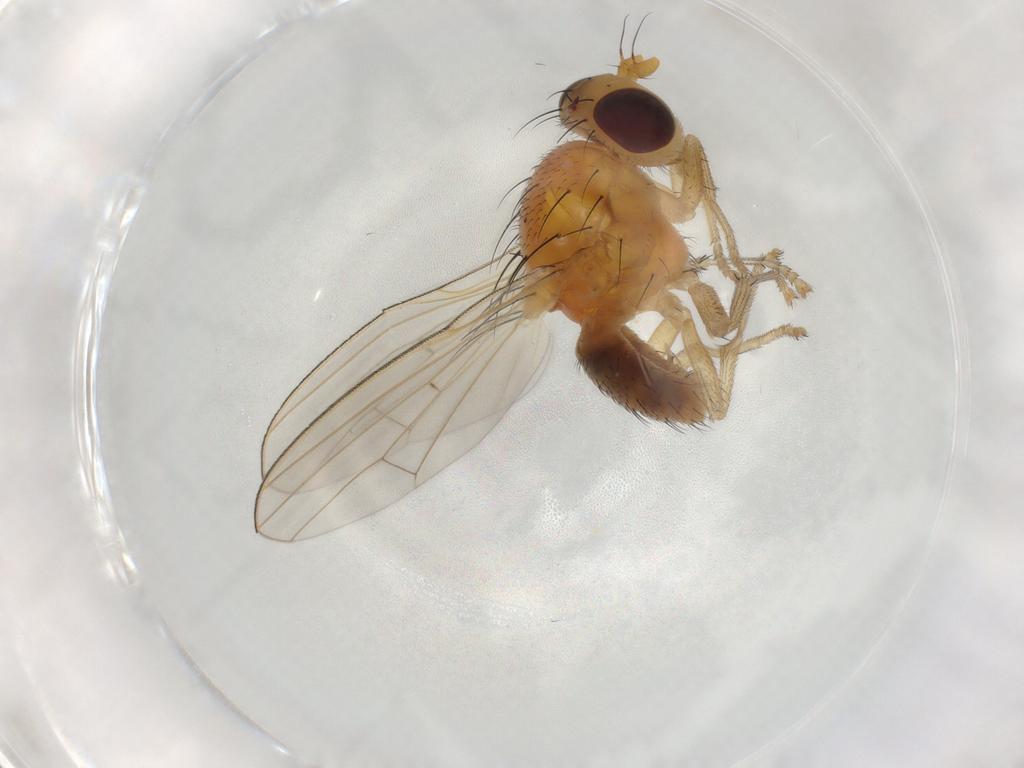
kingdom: Animalia
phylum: Arthropoda
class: Insecta
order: Diptera
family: Lauxaniidae
